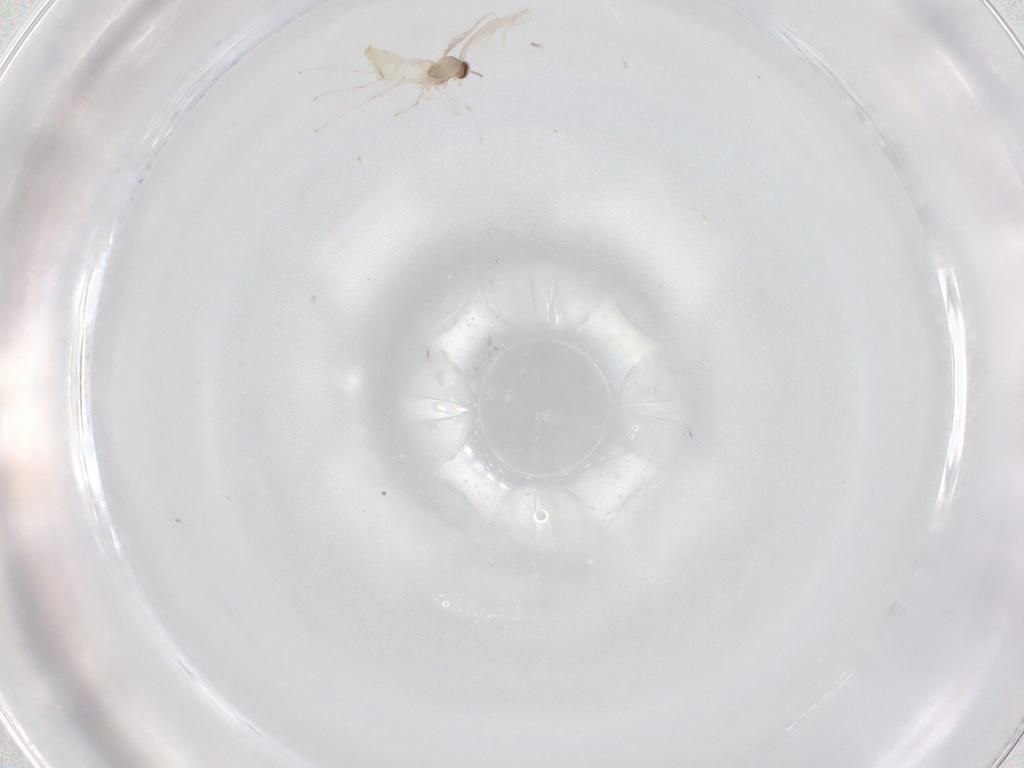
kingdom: Animalia
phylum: Arthropoda
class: Insecta
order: Diptera
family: Cecidomyiidae
